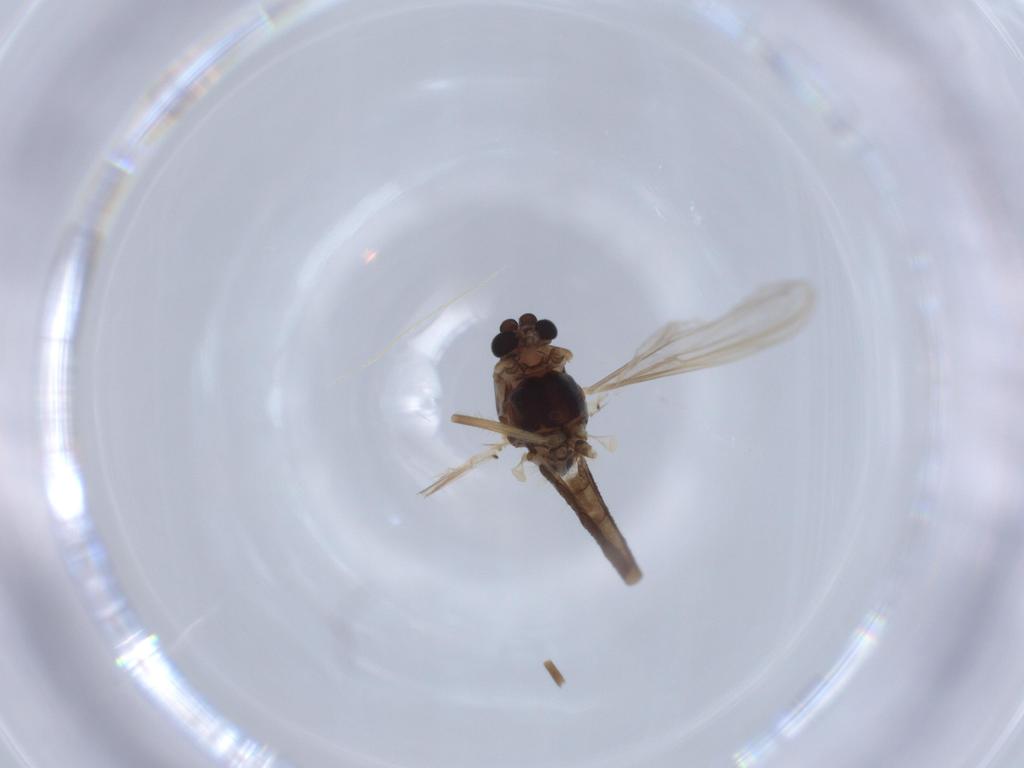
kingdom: Animalia
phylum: Arthropoda
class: Insecta
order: Diptera
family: Chironomidae
